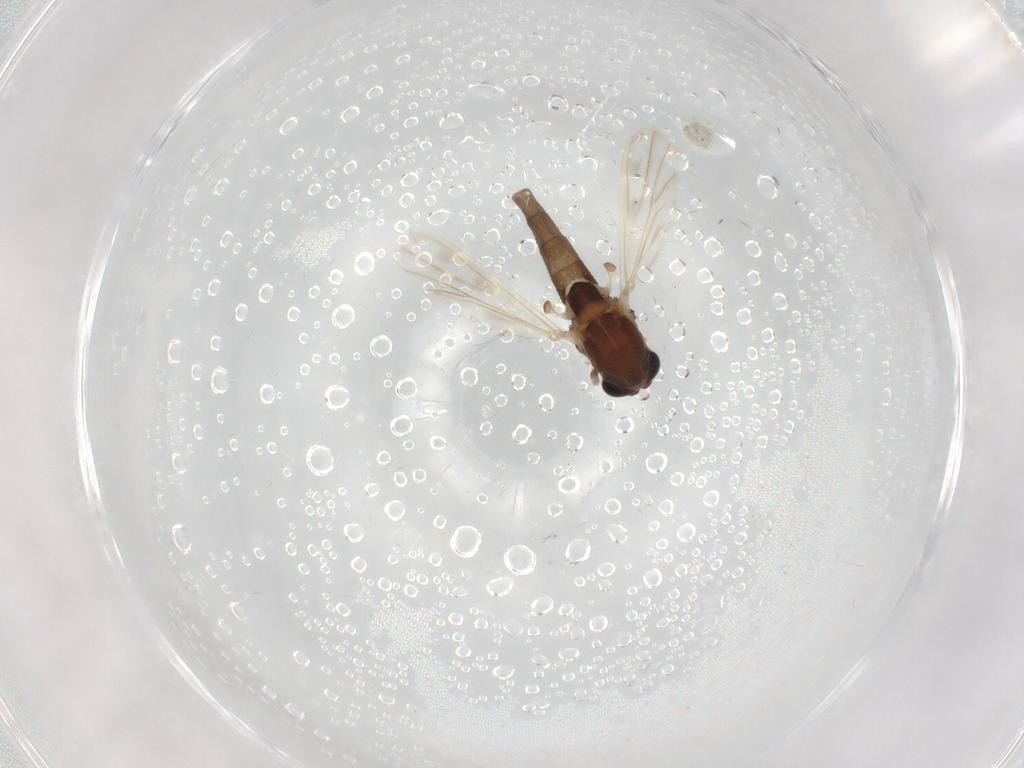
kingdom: Animalia
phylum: Arthropoda
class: Insecta
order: Diptera
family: Chironomidae
